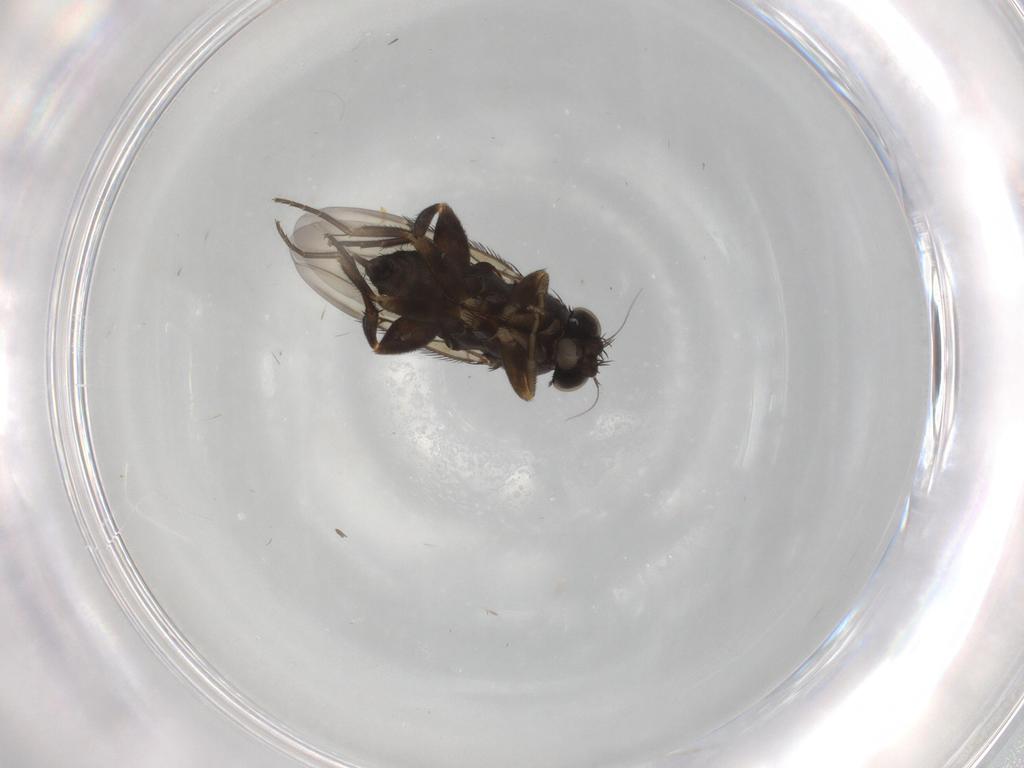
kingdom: Animalia
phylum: Arthropoda
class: Insecta
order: Diptera
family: Phoridae
